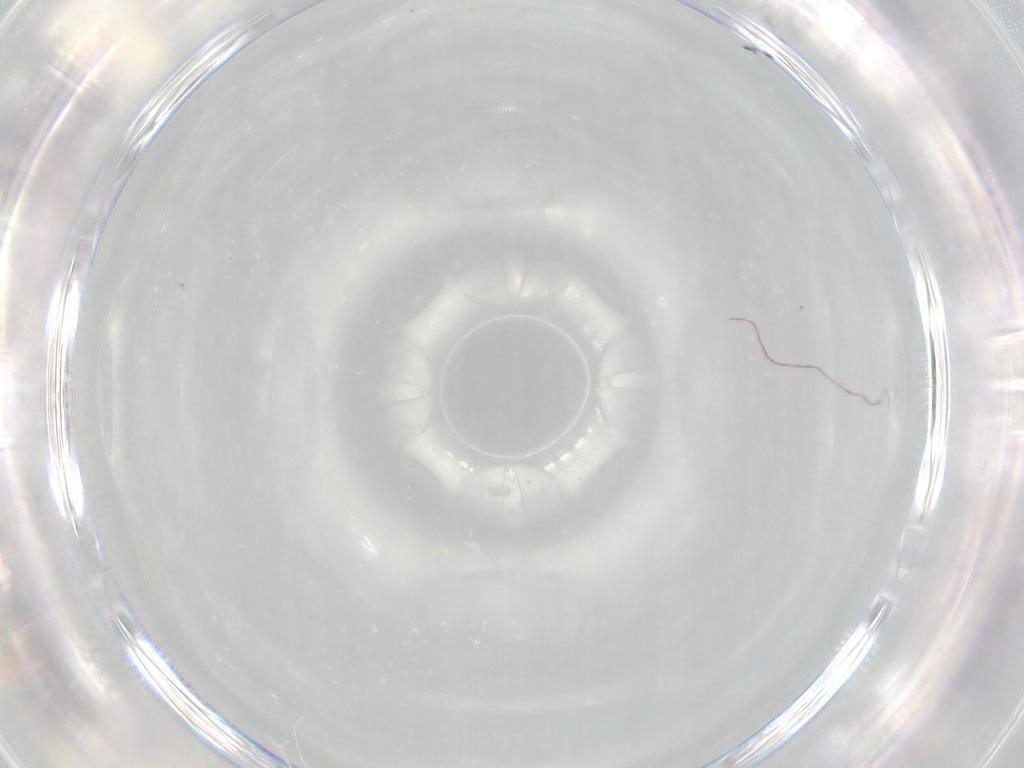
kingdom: Animalia
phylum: Arthropoda
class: Insecta
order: Diptera
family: Cecidomyiidae
